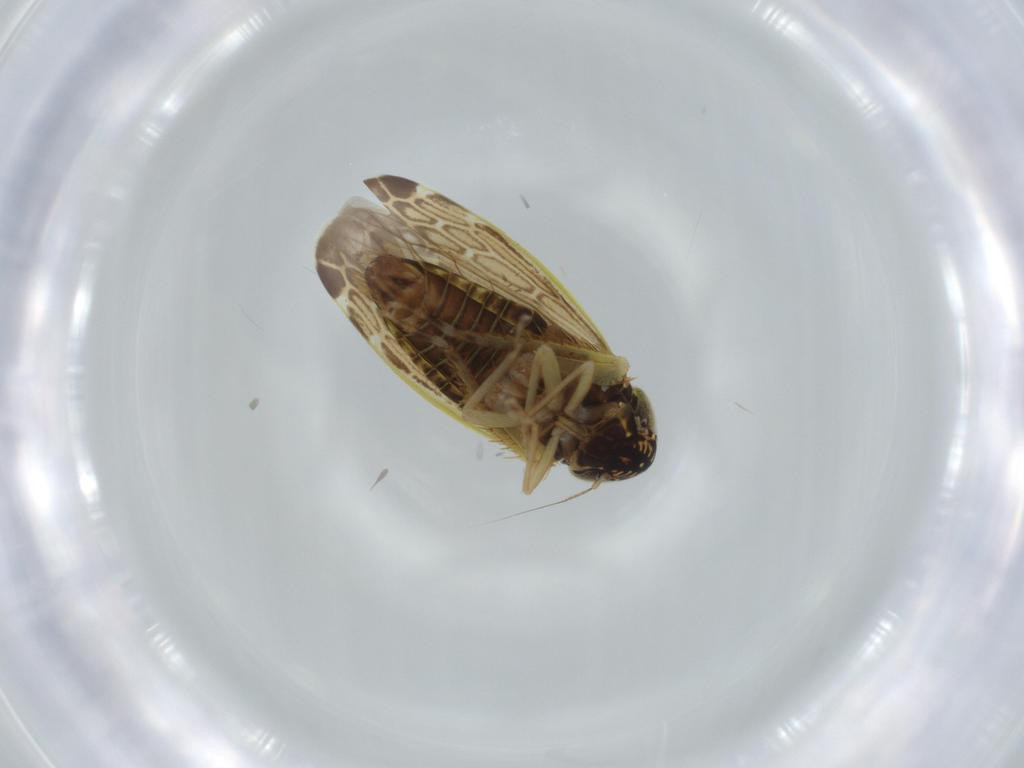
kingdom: Animalia
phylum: Arthropoda
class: Insecta
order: Hemiptera
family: Cicadellidae
